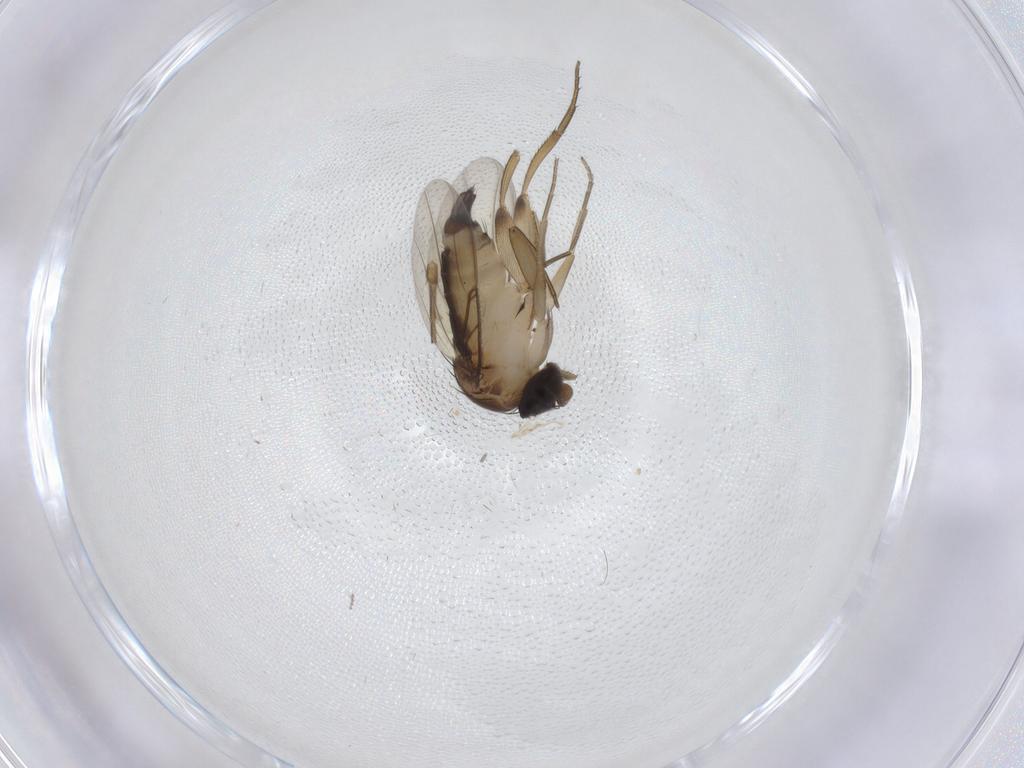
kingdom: Animalia
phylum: Arthropoda
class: Insecta
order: Diptera
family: Phoridae
